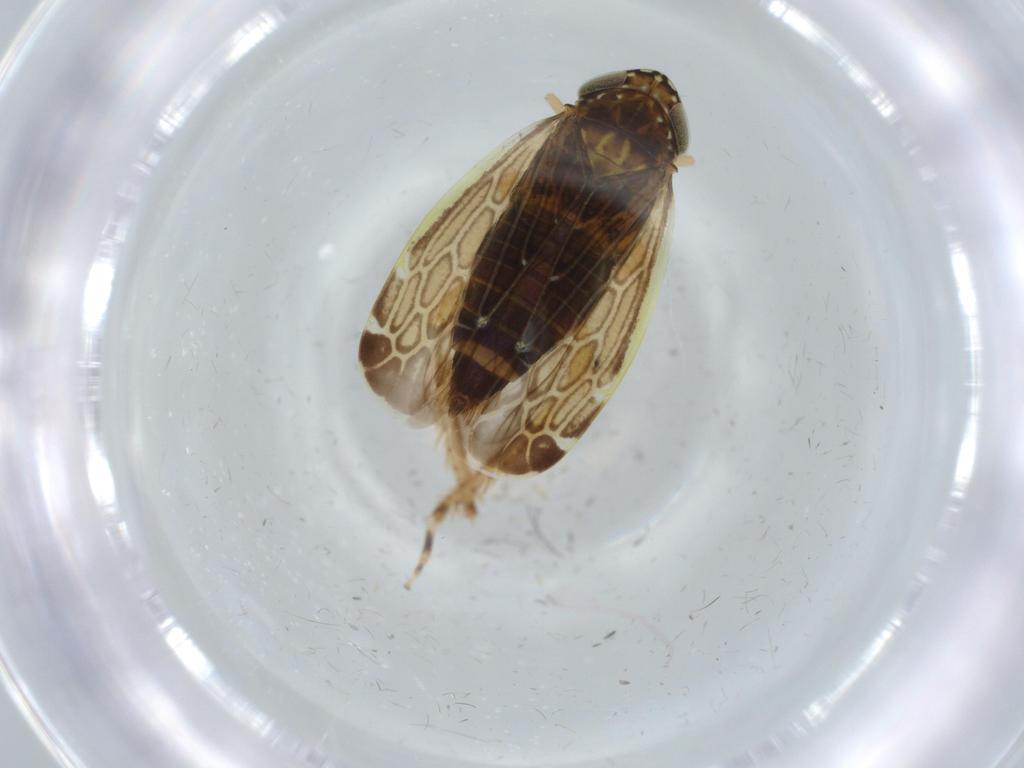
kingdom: Animalia
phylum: Arthropoda
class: Insecta
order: Hemiptera
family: Cicadellidae
